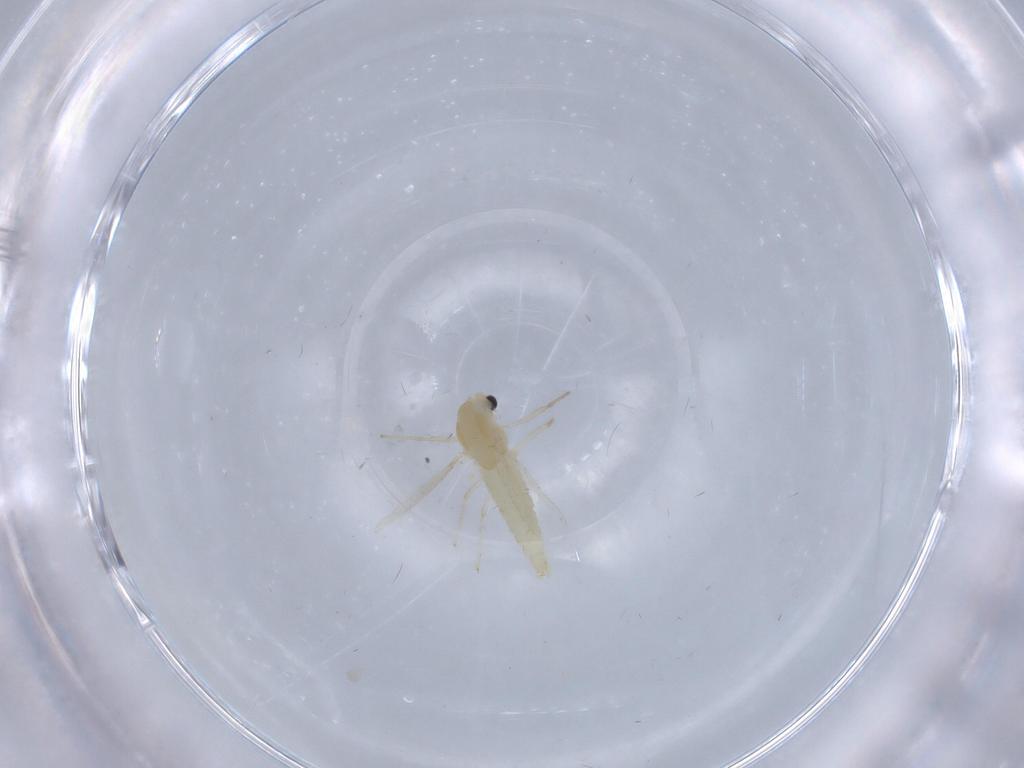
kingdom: Animalia
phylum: Arthropoda
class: Insecta
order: Diptera
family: Chironomidae
